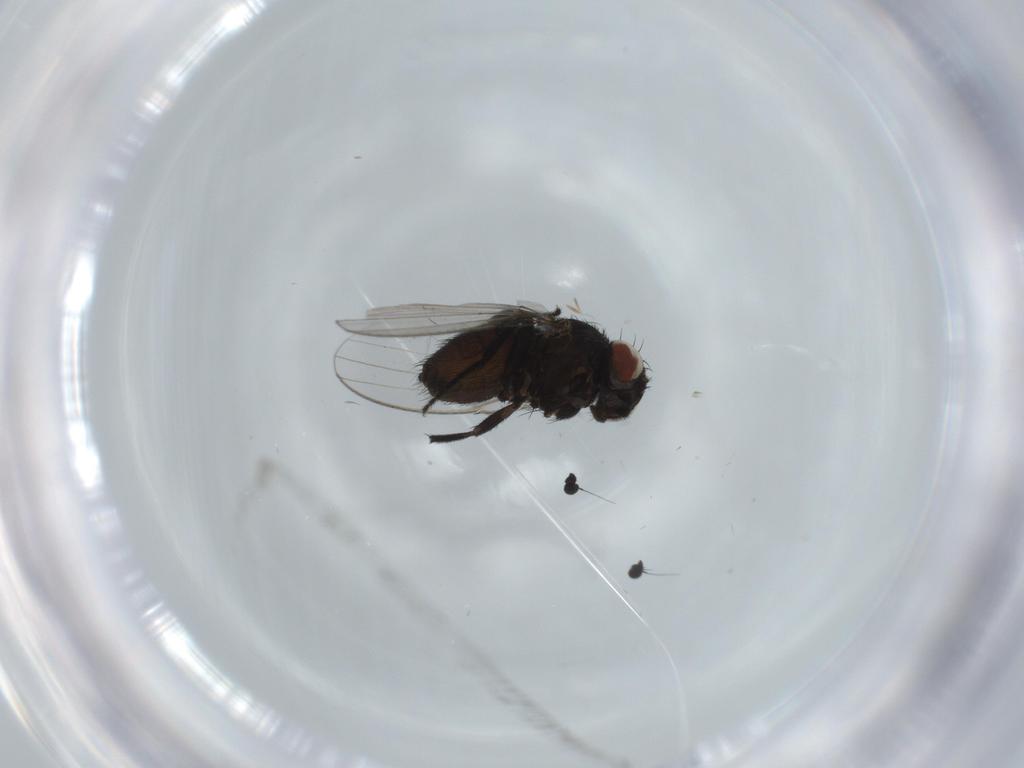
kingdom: Animalia
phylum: Arthropoda
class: Insecta
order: Diptera
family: Milichiidae
